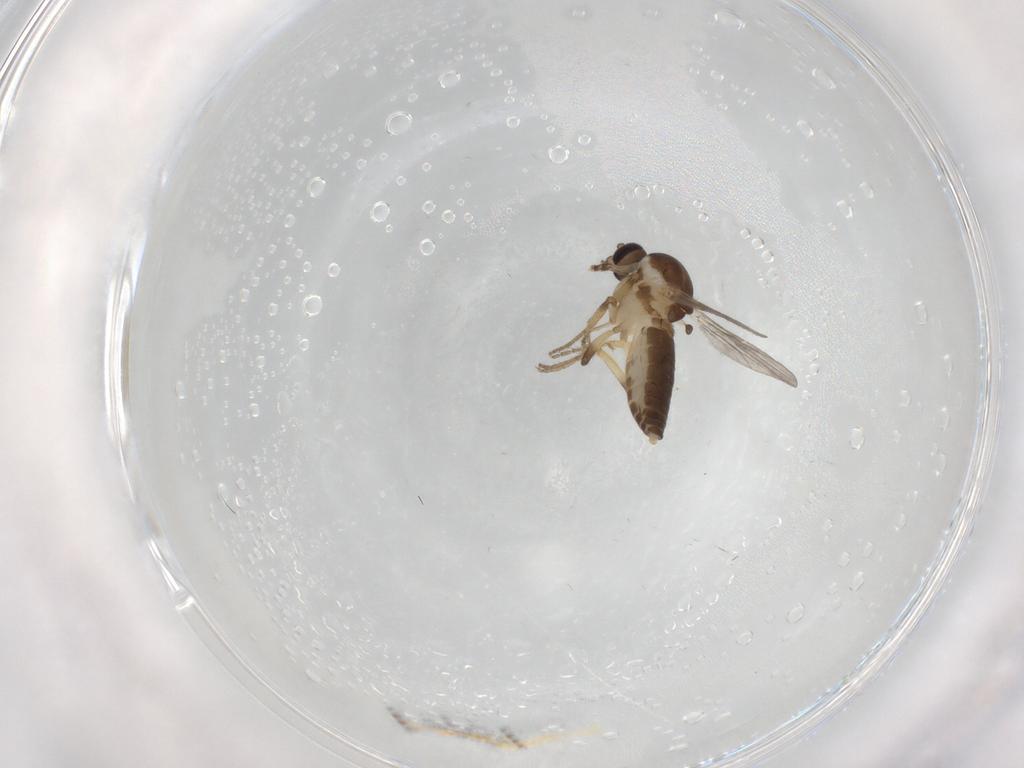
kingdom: Animalia
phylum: Arthropoda
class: Insecta
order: Diptera
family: Ceratopogonidae
